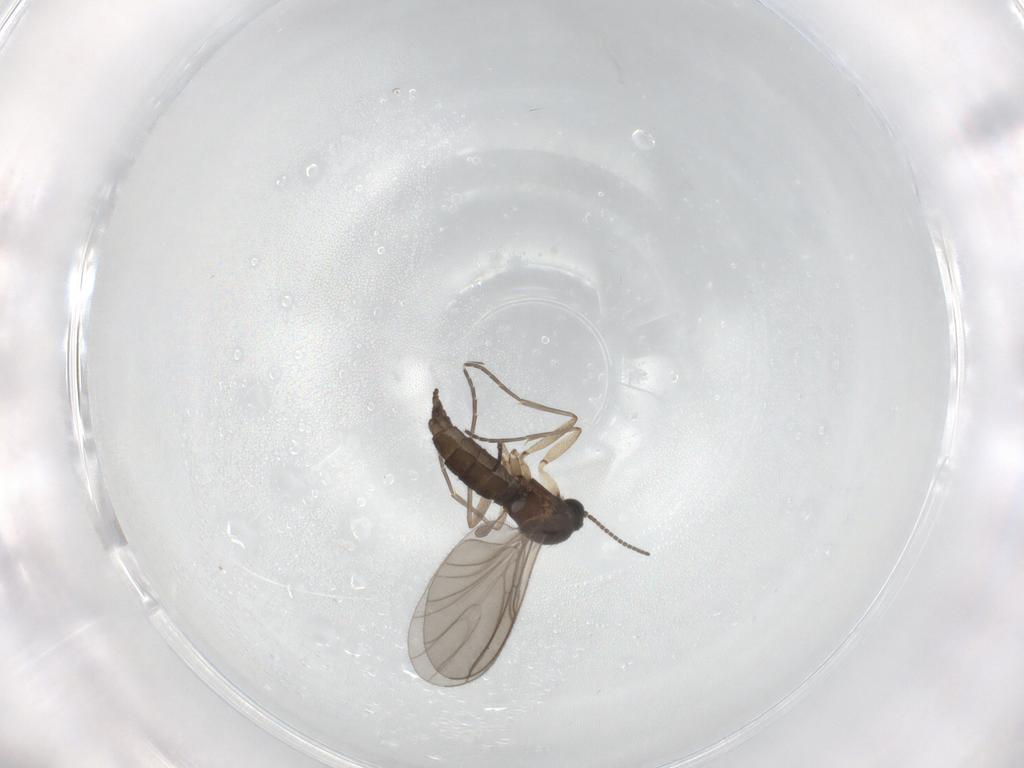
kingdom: Animalia
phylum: Arthropoda
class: Insecta
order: Diptera
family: Sciaridae
